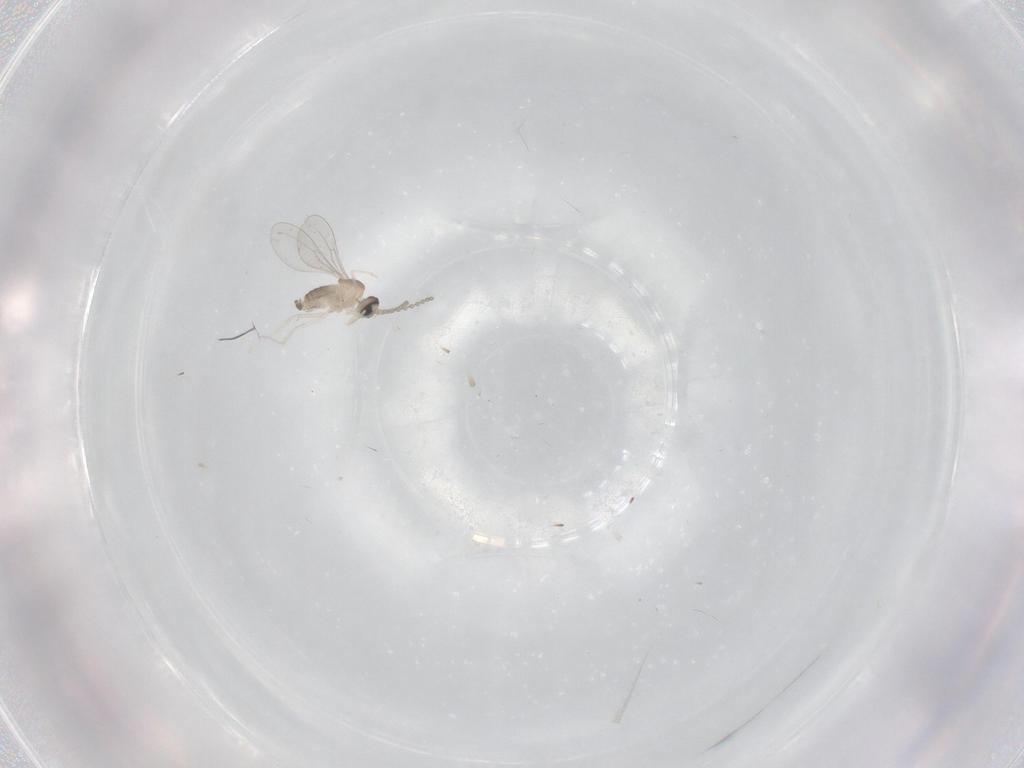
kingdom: Animalia
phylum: Arthropoda
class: Insecta
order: Diptera
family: Cecidomyiidae
